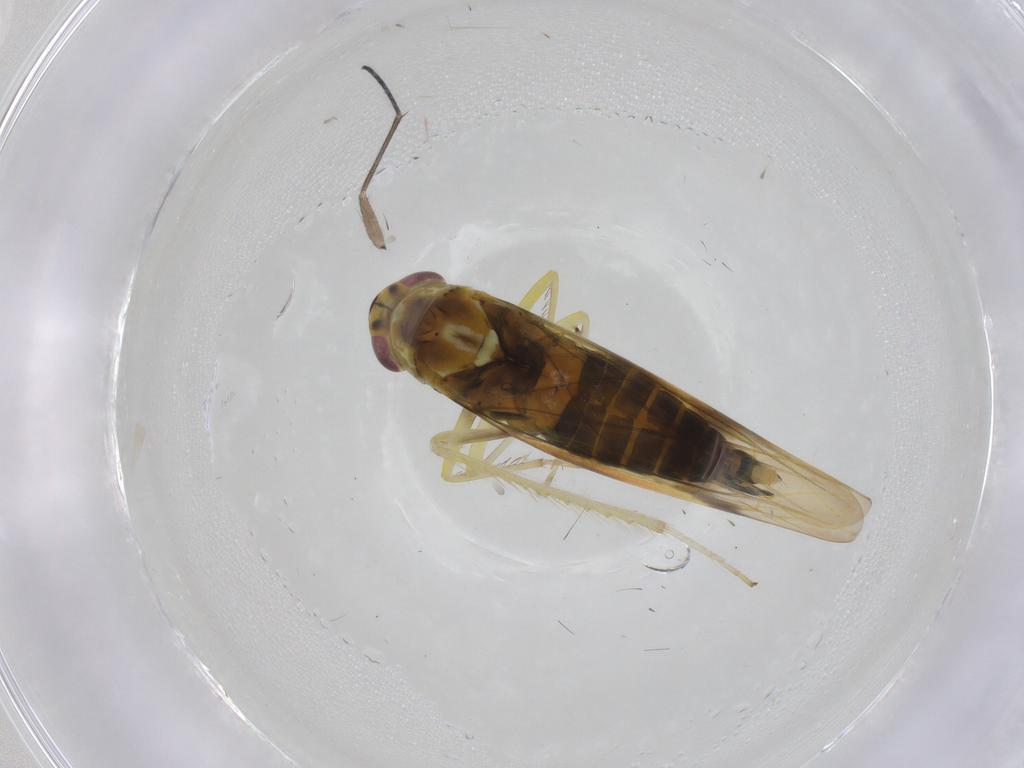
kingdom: Animalia
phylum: Arthropoda
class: Insecta
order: Hemiptera
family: Cicadellidae
